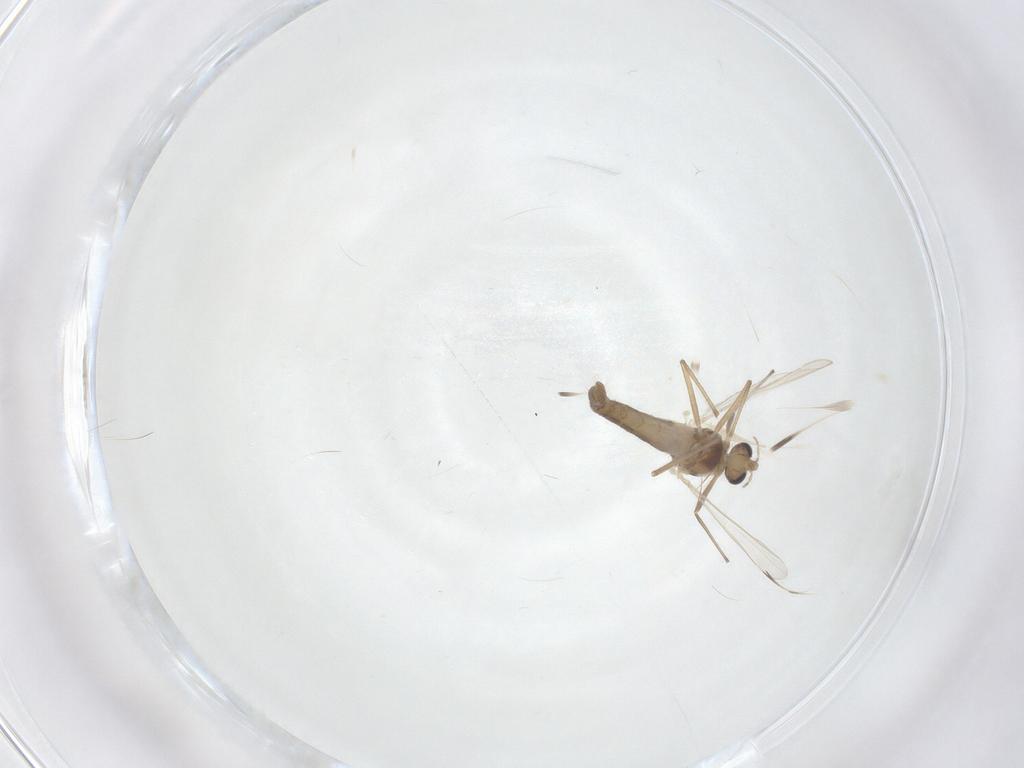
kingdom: Animalia
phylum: Arthropoda
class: Insecta
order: Diptera
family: Chironomidae
